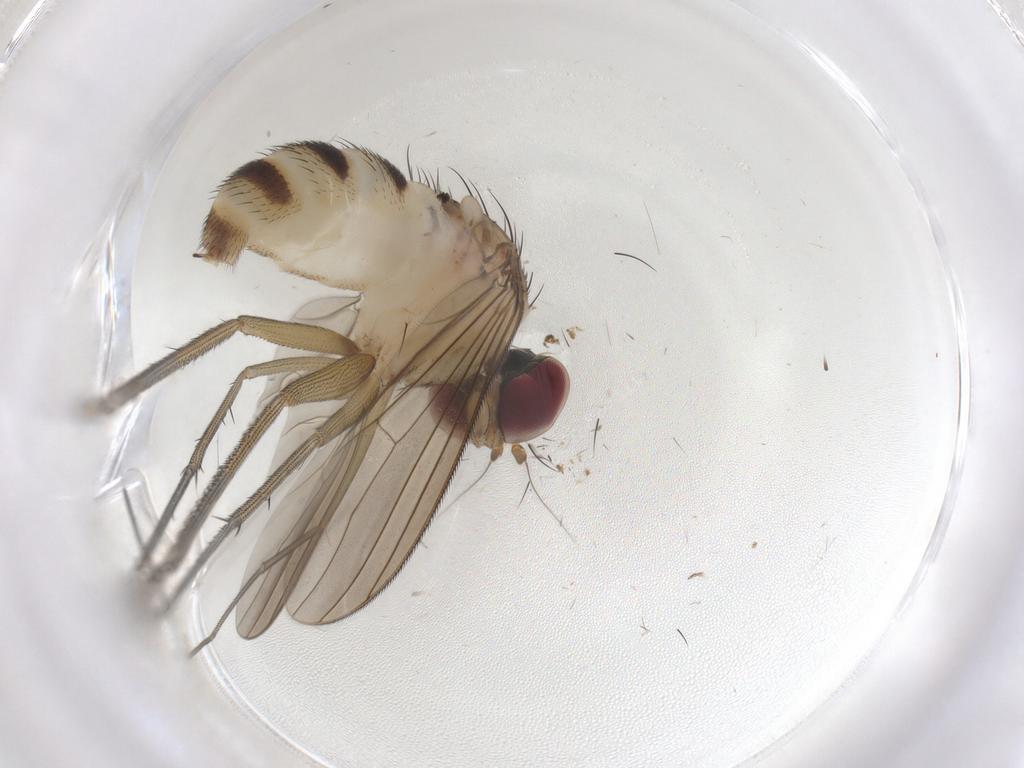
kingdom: Animalia
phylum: Arthropoda
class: Insecta
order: Diptera
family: Dolichopodidae
